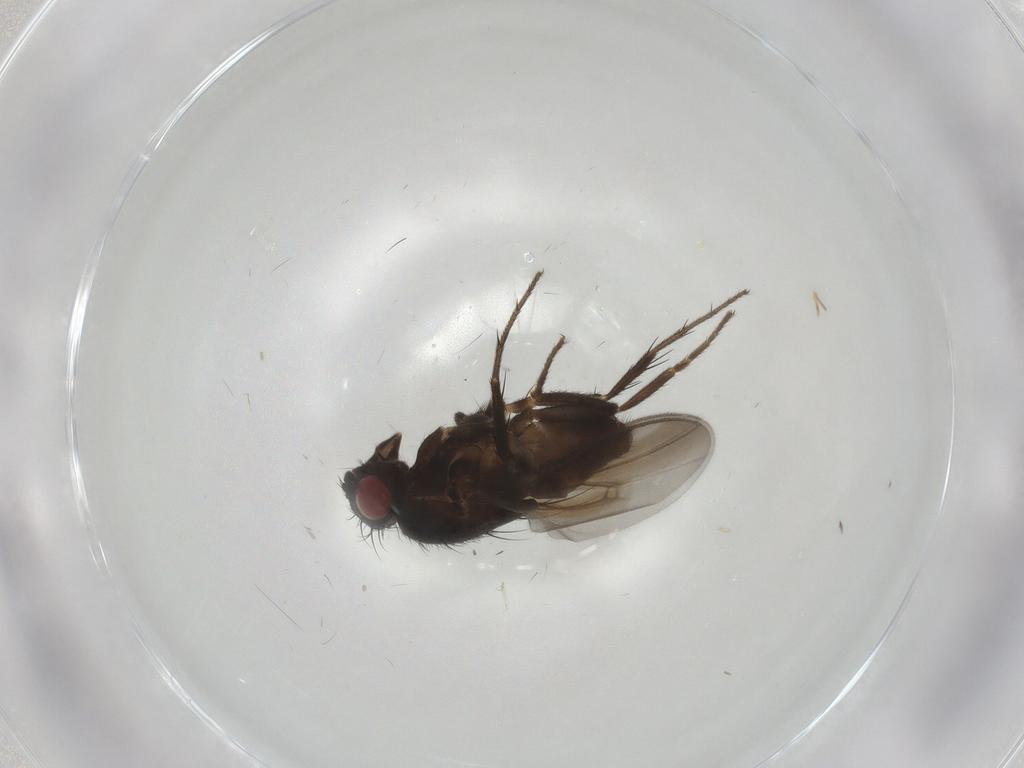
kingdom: Animalia
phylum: Arthropoda
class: Insecta
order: Diptera
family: Sphaeroceridae
